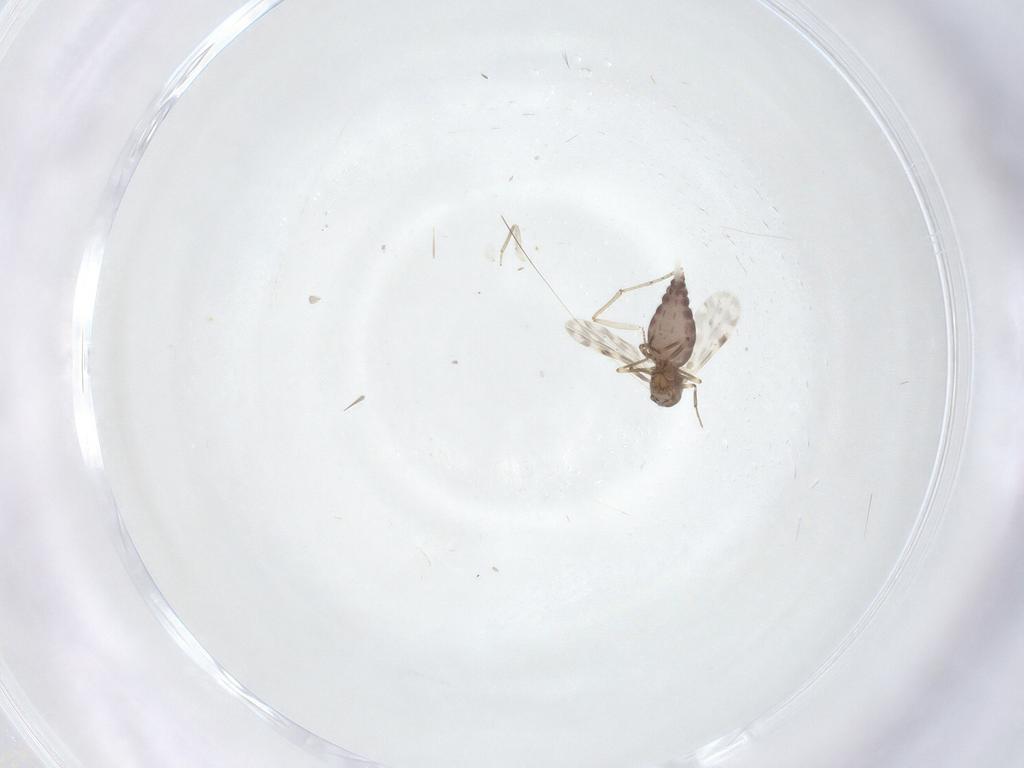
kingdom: Animalia
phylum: Arthropoda
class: Insecta
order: Diptera
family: Ceratopogonidae
